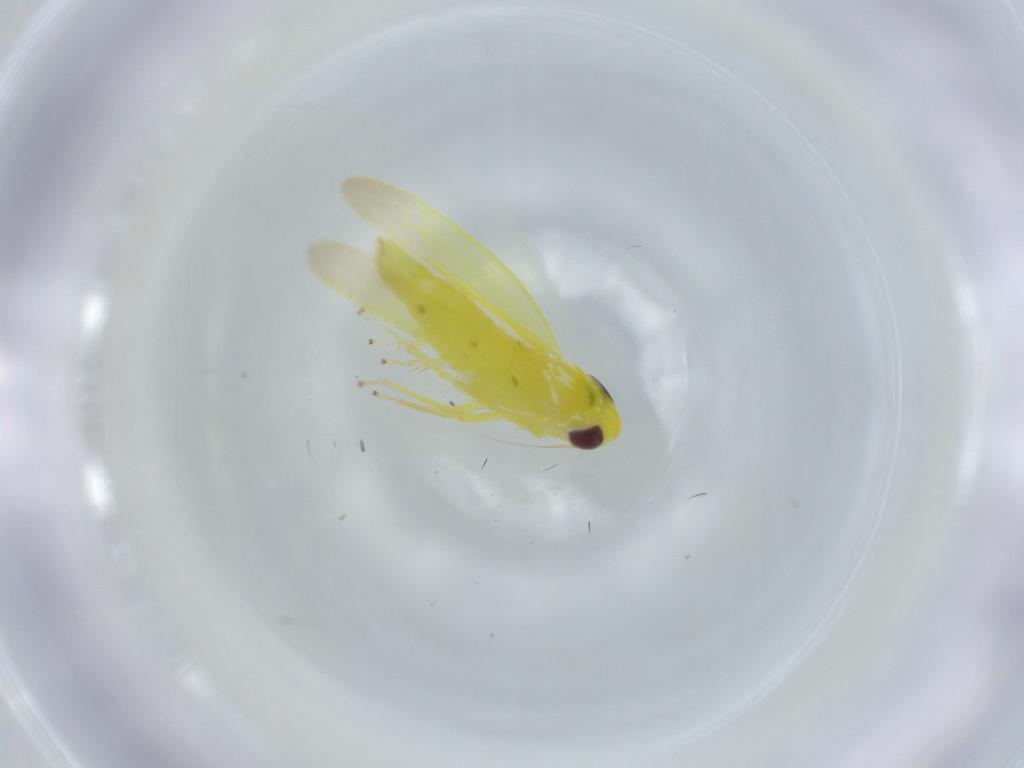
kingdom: Animalia
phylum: Arthropoda
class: Insecta
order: Hemiptera
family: Cicadellidae
